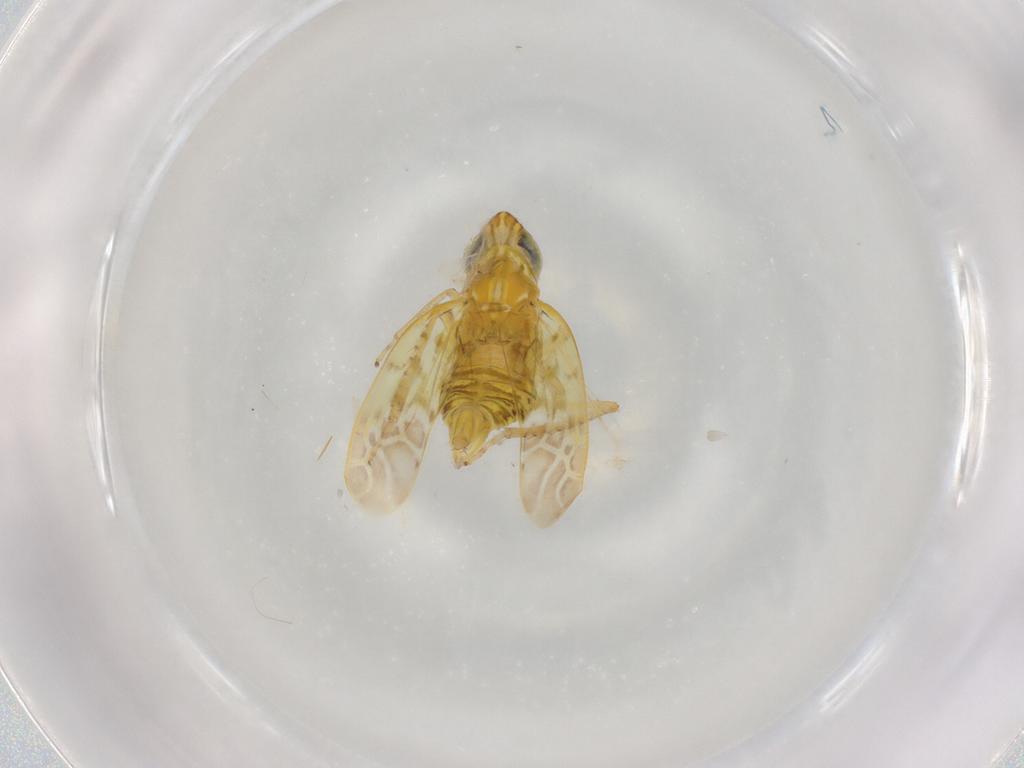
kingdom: Animalia
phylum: Arthropoda
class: Insecta
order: Hemiptera
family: Cicadellidae
